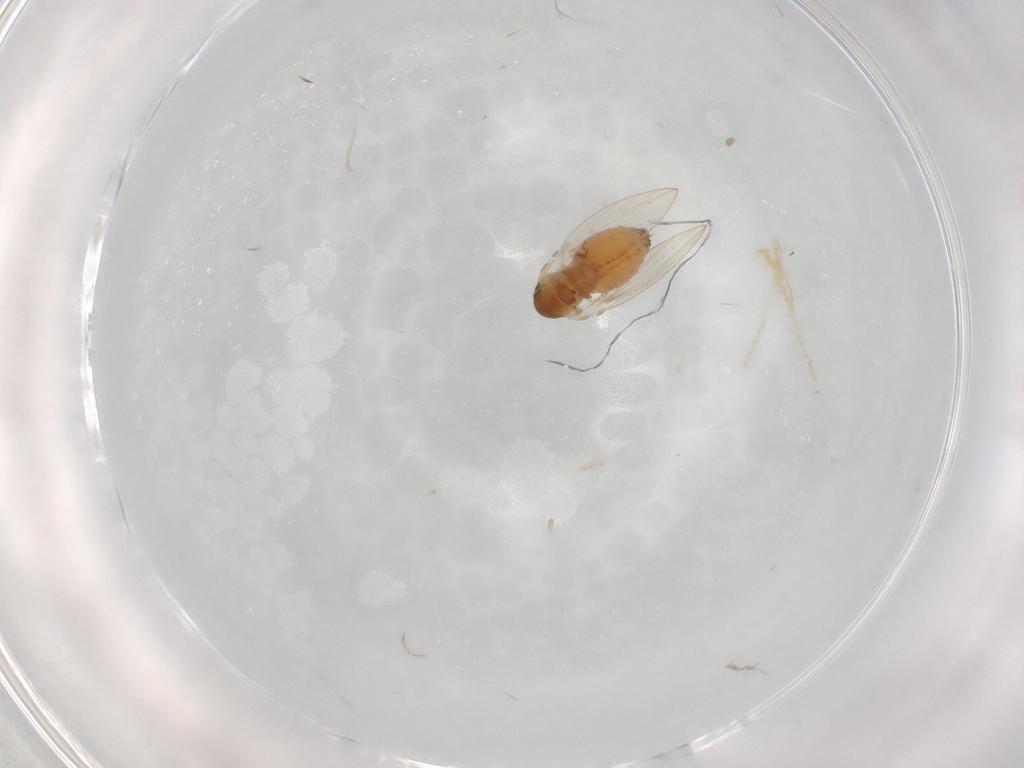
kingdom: Animalia
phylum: Arthropoda
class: Insecta
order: Diptera
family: Psychodidae
